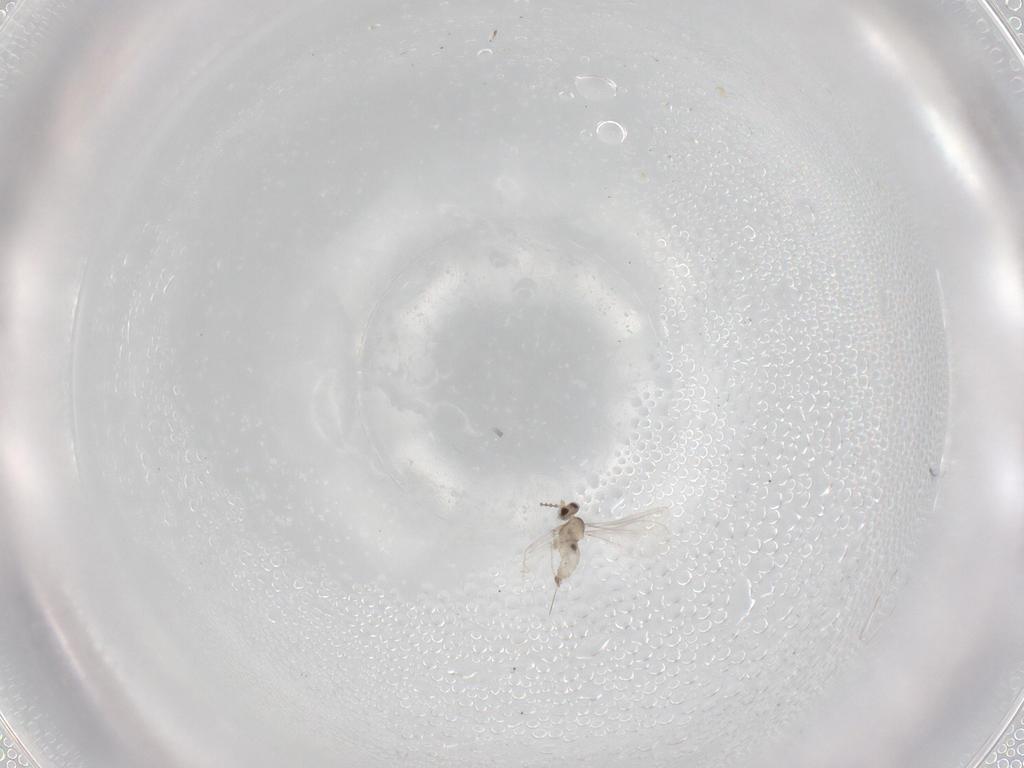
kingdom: Animalia
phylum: Arthropoda
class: Insecta
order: Diptera
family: Cecidomyiidae
